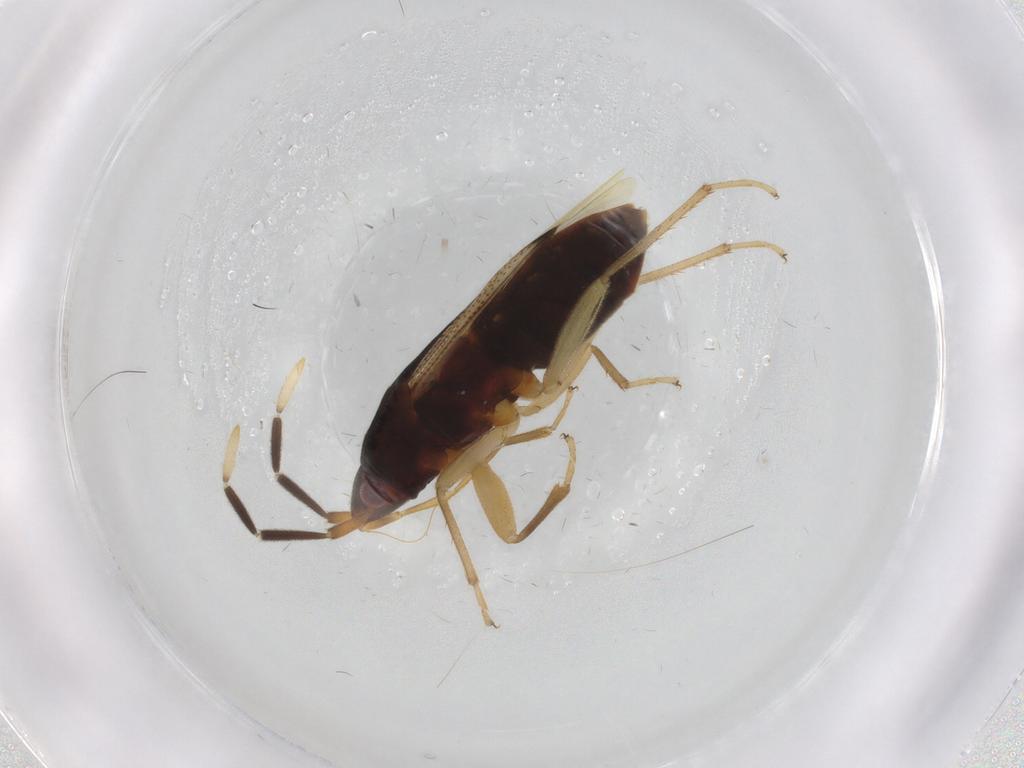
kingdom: Animalia
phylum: Arthropoda
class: Insecta
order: Hemiptera
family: Rhyparochromidae
